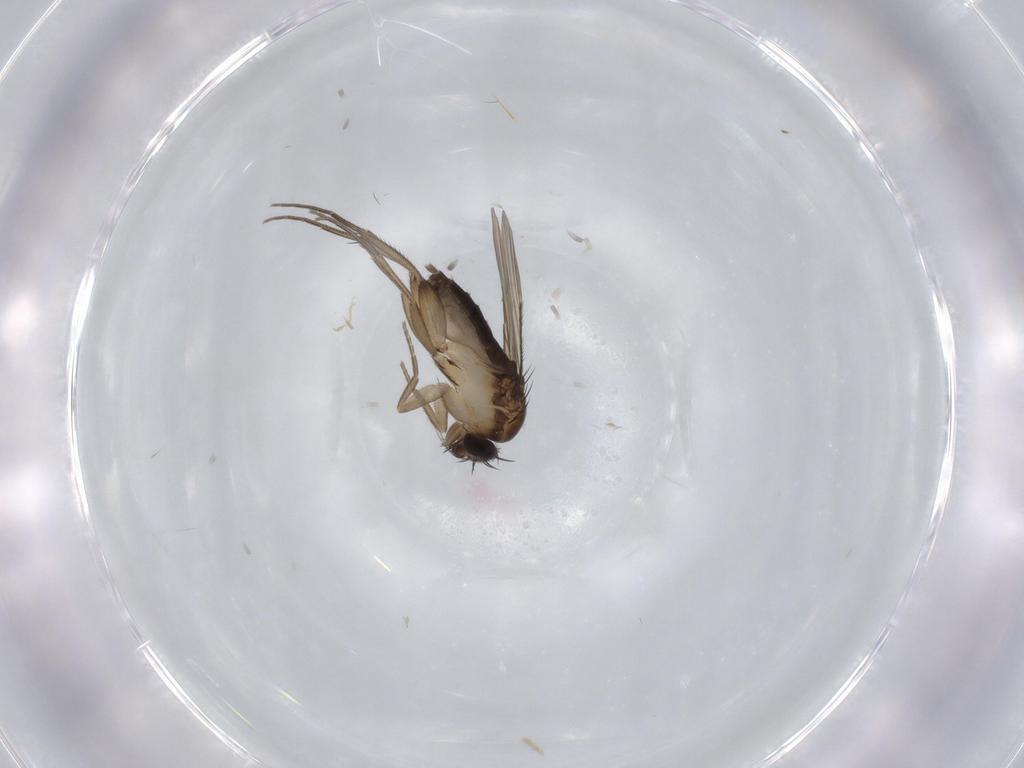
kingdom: Animalia
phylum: Arthropoda
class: Insecta
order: Diptera
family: Phoridae
